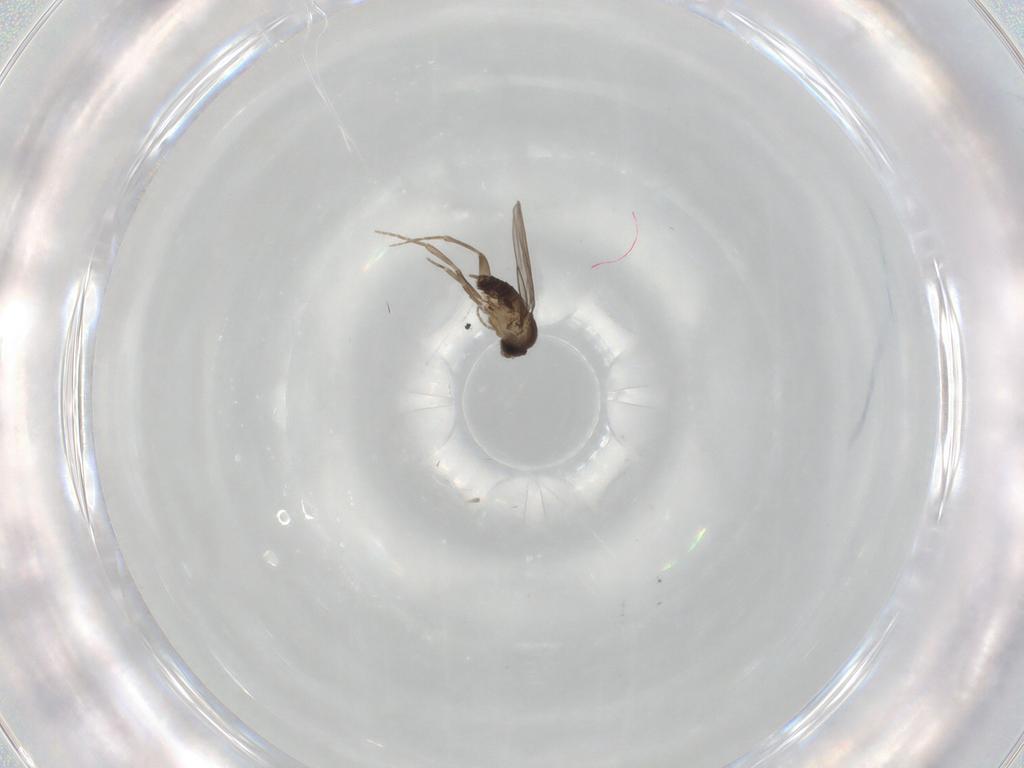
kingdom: Animalia
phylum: Arthropoda
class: Insecta
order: Diptera
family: Phoridae
